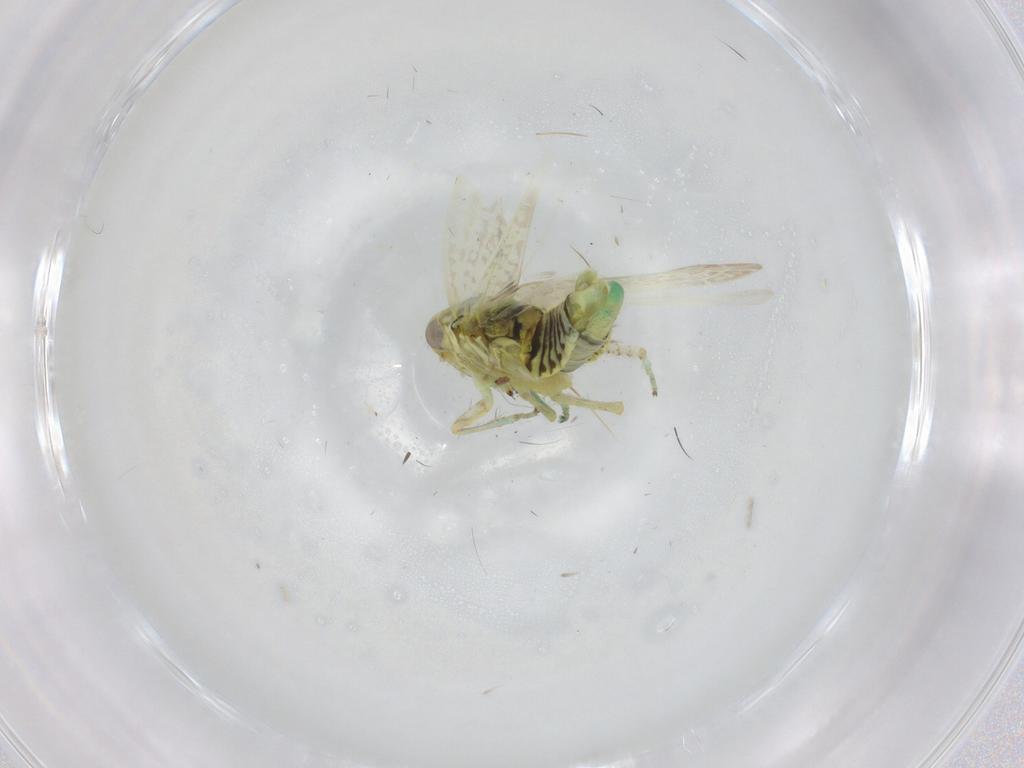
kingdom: Animalia
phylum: Arthropoda
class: Insecta
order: Hemiptera
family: Cicadellidae
